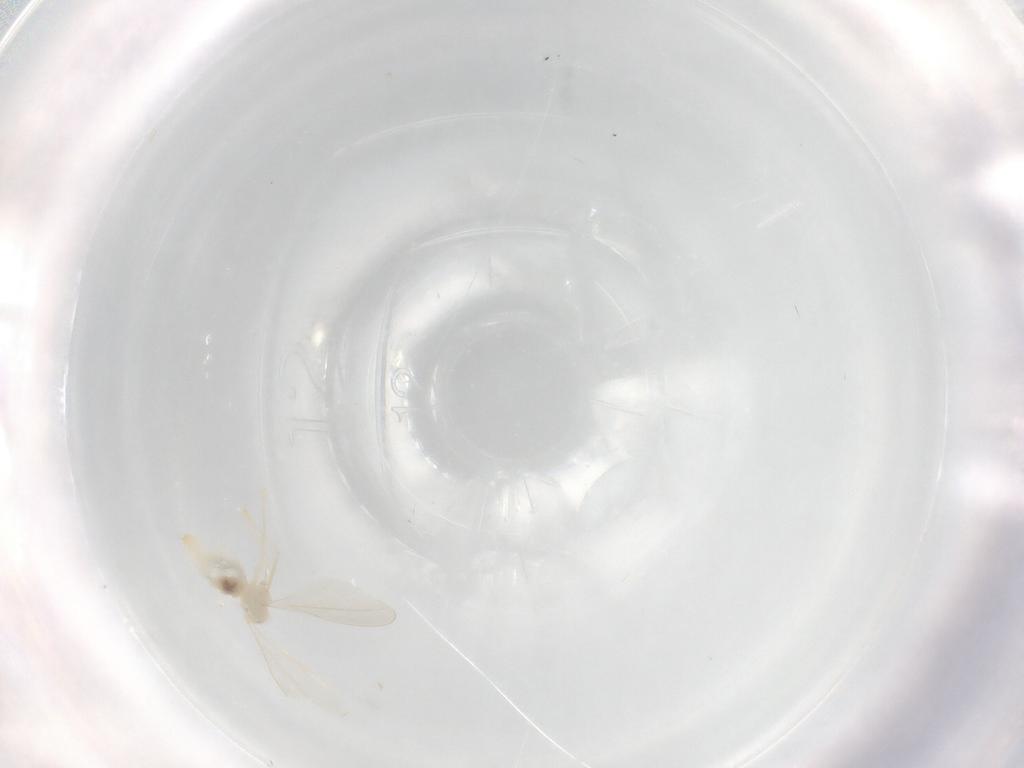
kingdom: Animalia
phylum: Arthropoda
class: Insecta
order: Diptera
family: Cecidomyiidae
